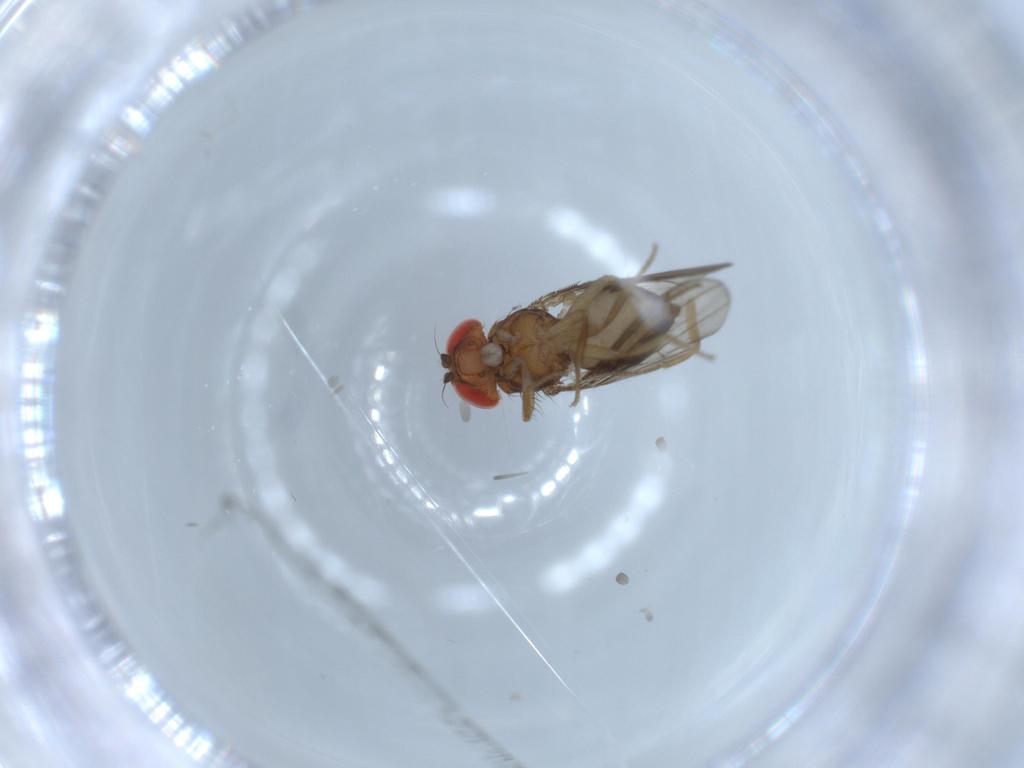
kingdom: Animalia
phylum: Arthropoda
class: Insecta
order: Diptera
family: Drosophilidae
